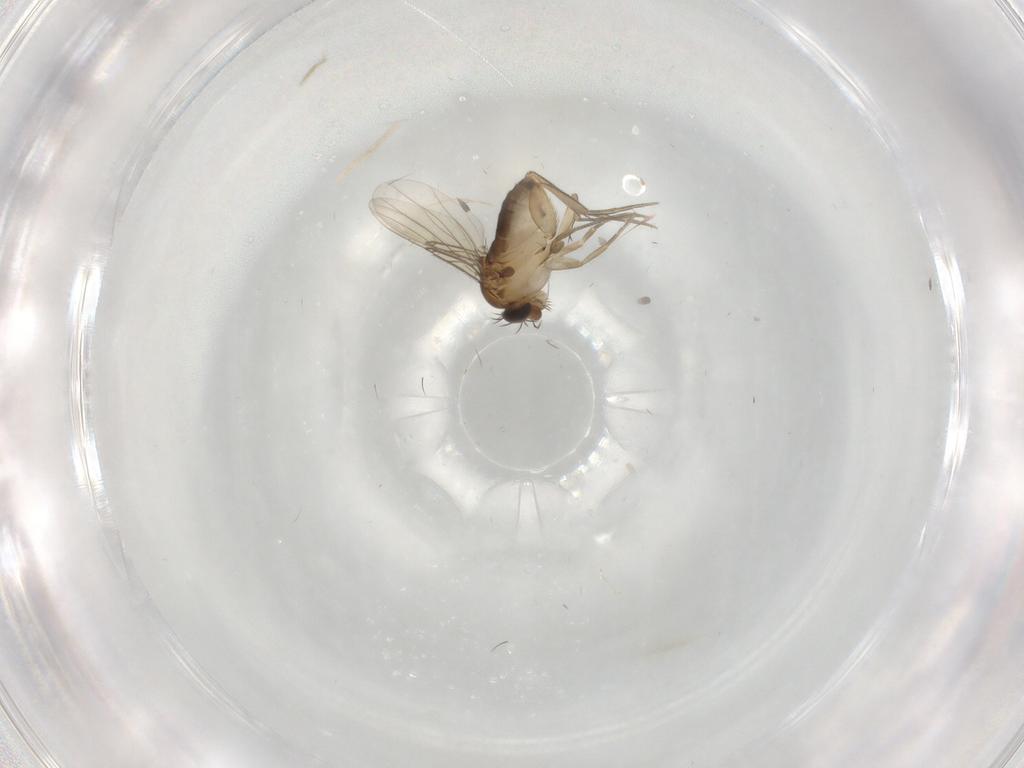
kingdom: Animalia
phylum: Arthropoda
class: Insecta
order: Diptera
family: Phoridae
